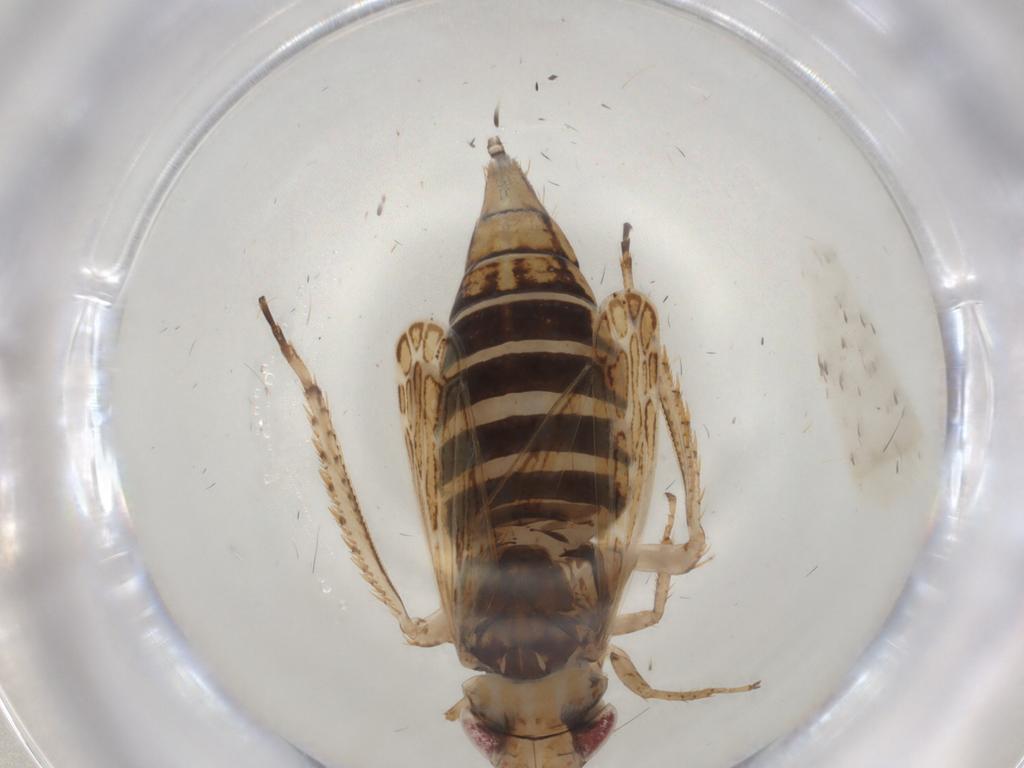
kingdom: Animalia
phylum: Arthropoda
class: Insecta
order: Hemiptera
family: Cicadellidae
